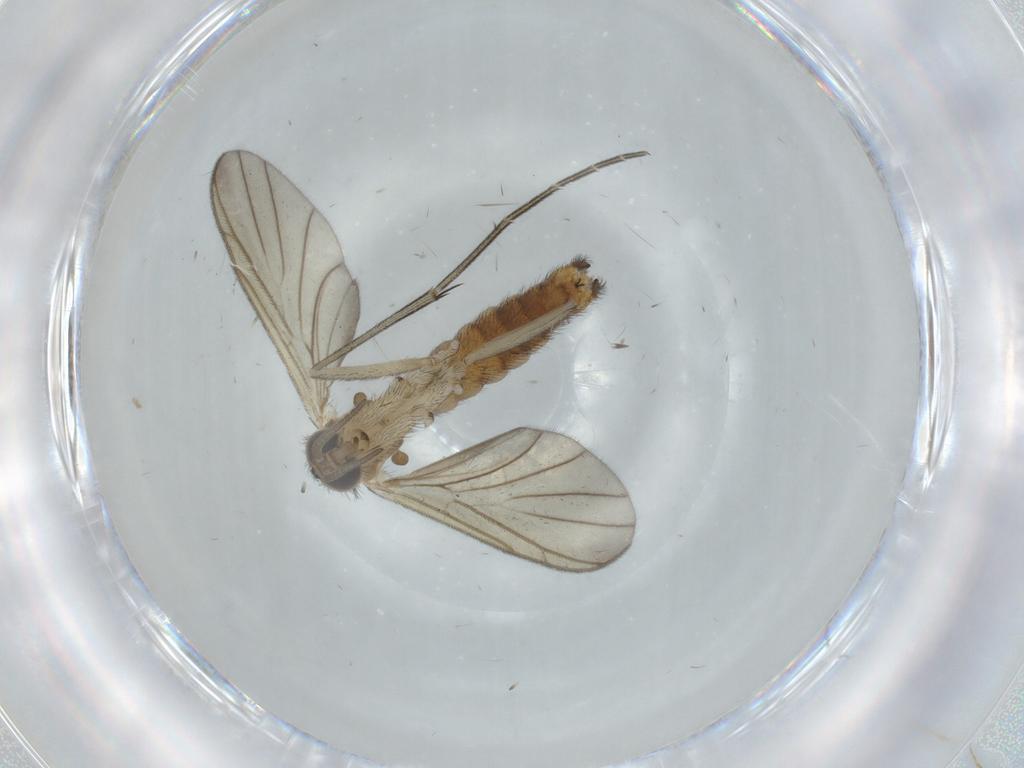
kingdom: Animalia
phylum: Arthropoda
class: Insecta
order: Diptera
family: Keroplatidae
